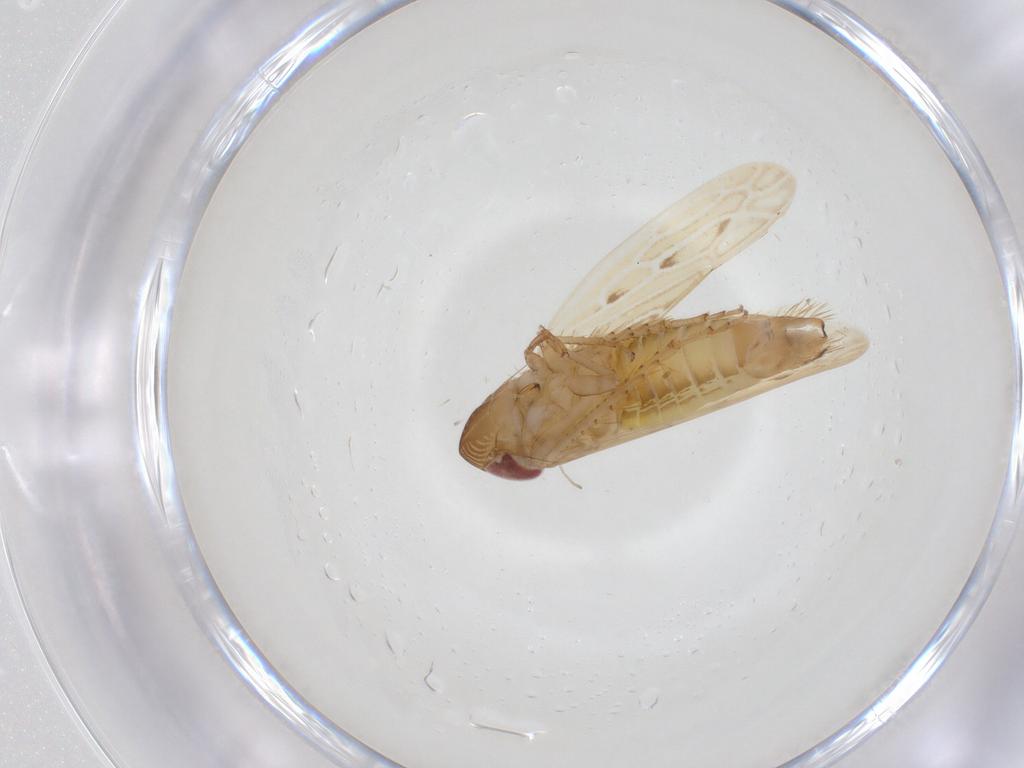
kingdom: Animalia
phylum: Arthropoda
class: Insecta
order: Hemiptera
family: Cicadellidae
